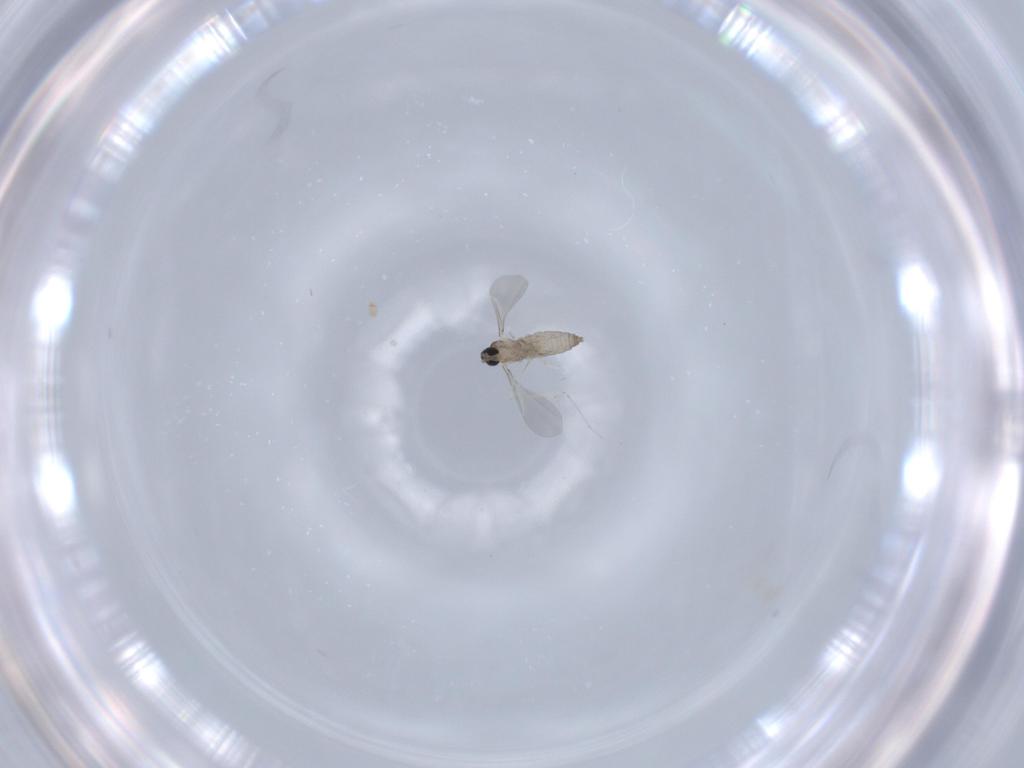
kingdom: Animalia
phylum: Arthropoda
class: Insecta
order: Diptera
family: Cecidomyiidae
